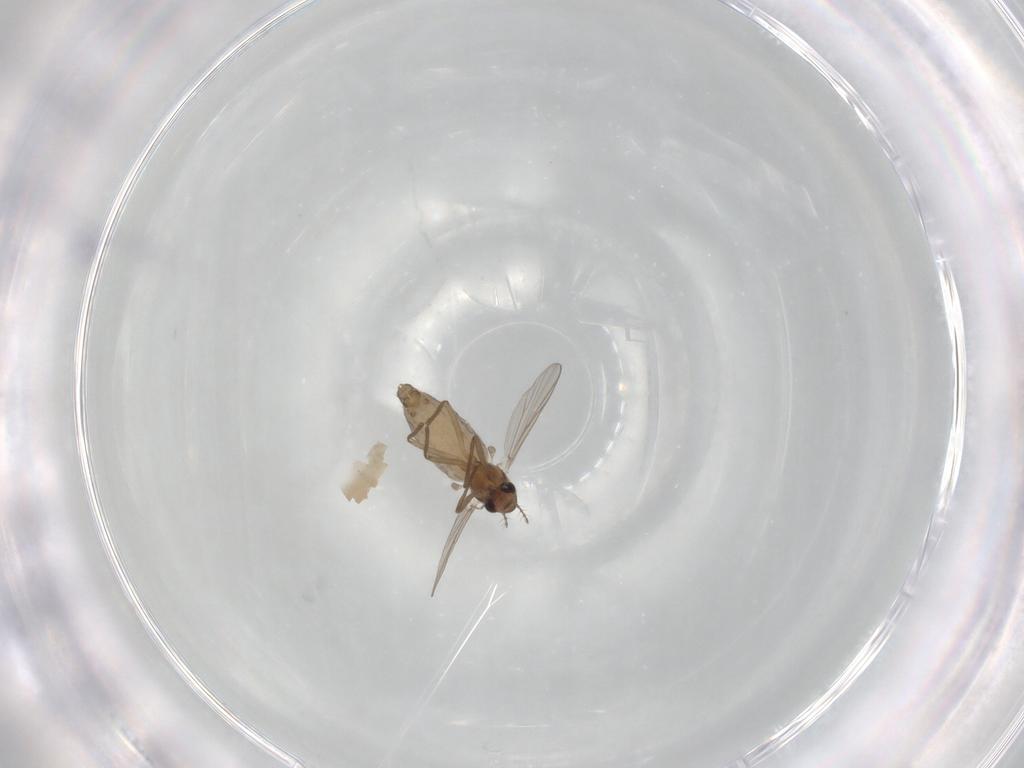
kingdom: Animalia
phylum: Arthropoda
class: Insecta
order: Diptera
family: Chironomidae
